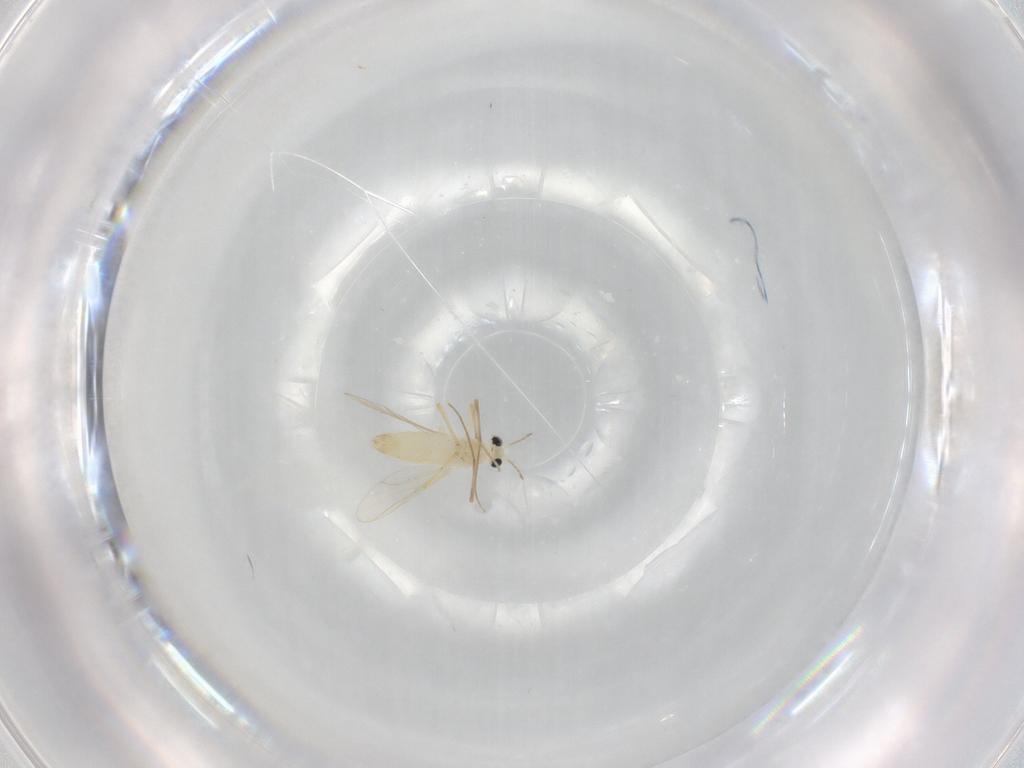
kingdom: Animalia
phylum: Arthropoda
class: Insecta
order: Diptera
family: Chironomidae
